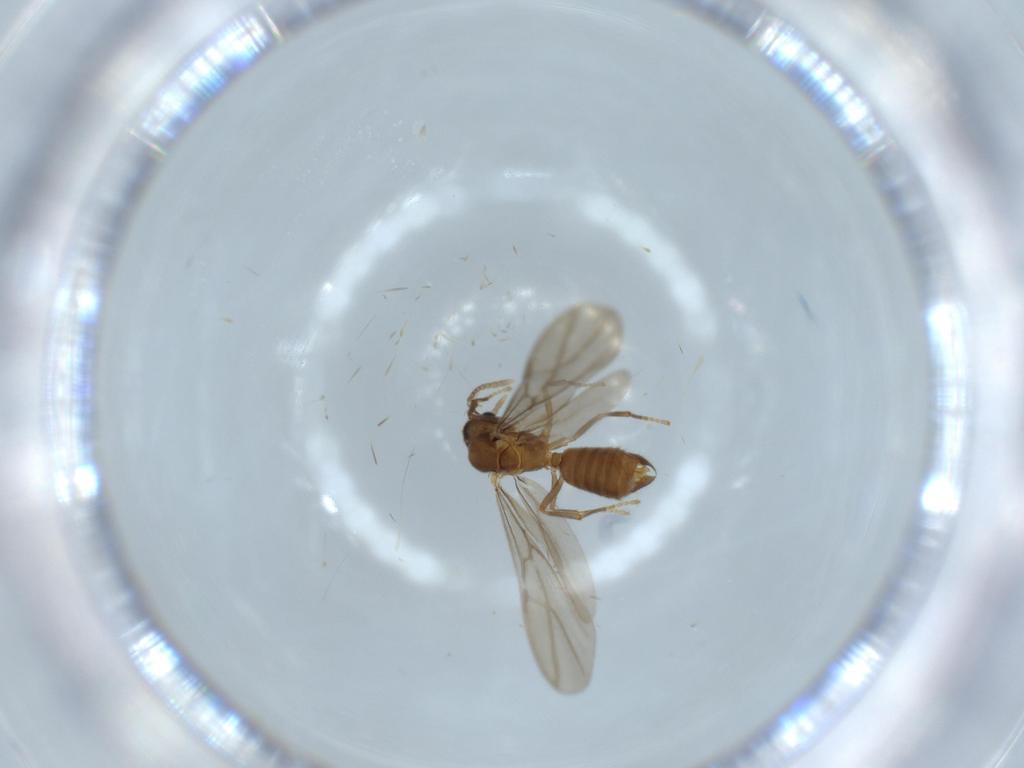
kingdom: Animalia
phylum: Arthropoda
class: Insecta
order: Hymenoptera
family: Formicidae
